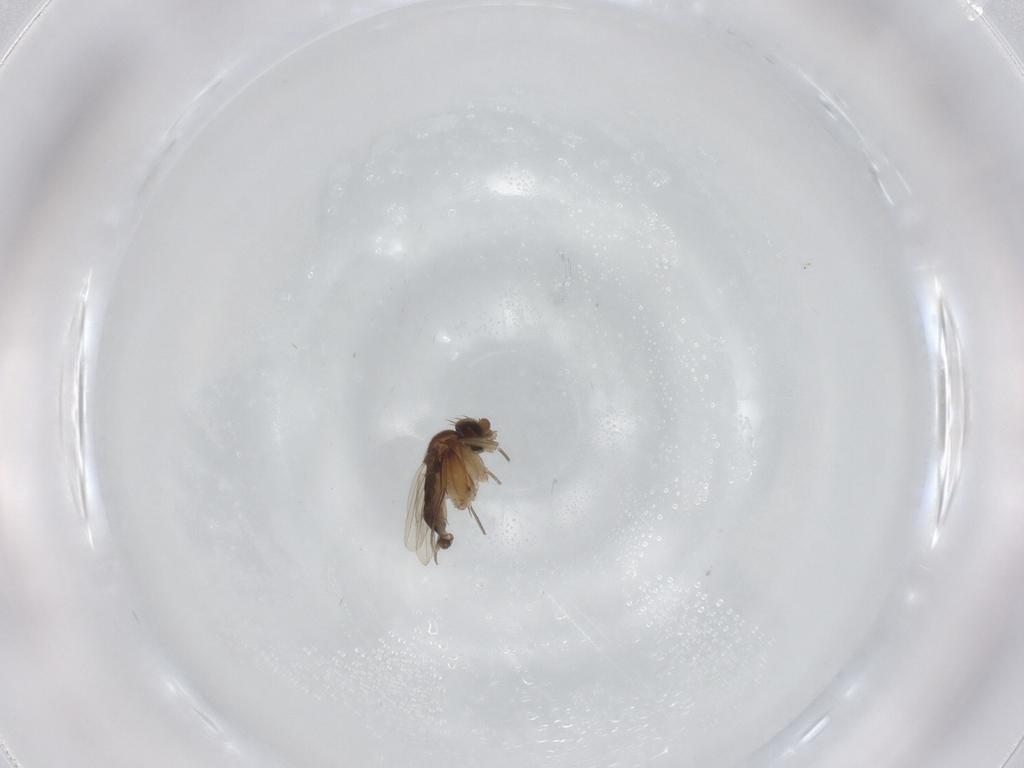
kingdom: Animalia
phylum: Arthropoda
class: Insecta
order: Diptera
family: Phoridae
